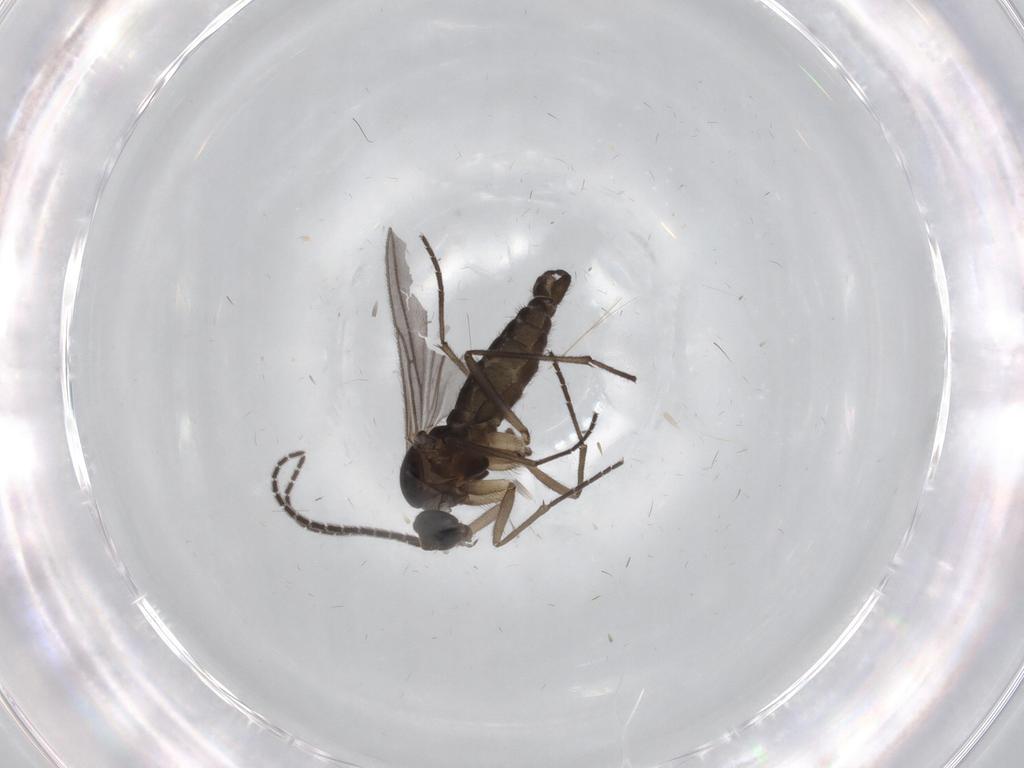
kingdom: Animalia
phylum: Arthropoda
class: Insecta
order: Diptera
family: Sciaridae
